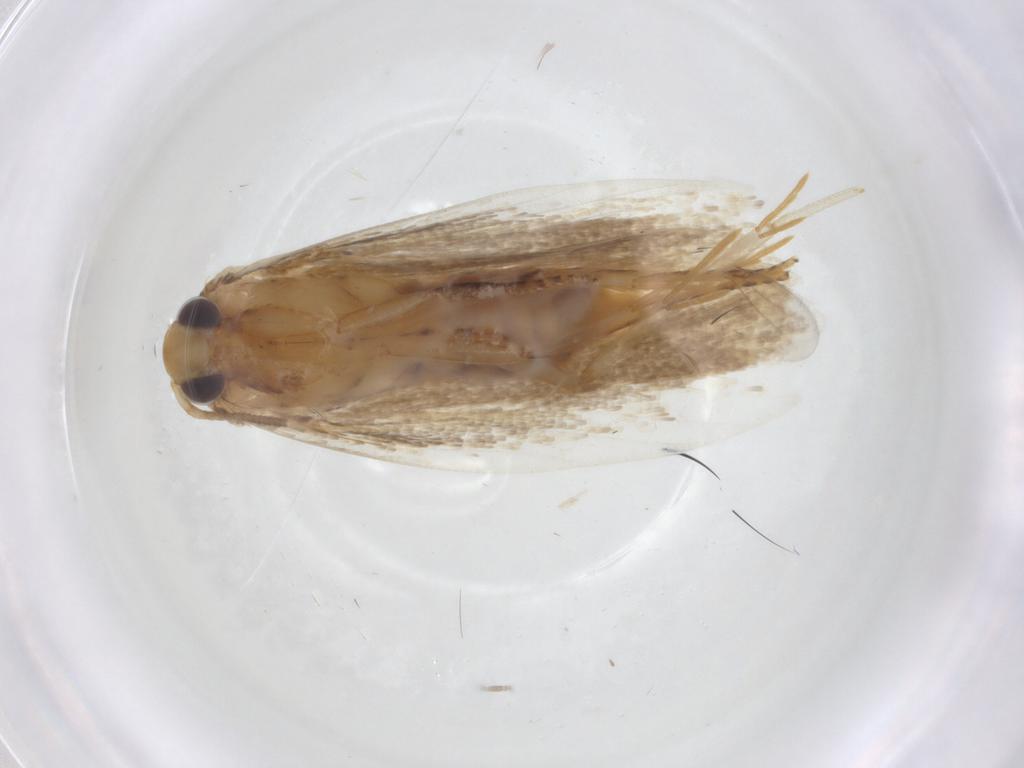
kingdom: Animalia
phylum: Arthropoda
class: Insecta
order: Lepidoptera
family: Peleopodidae
